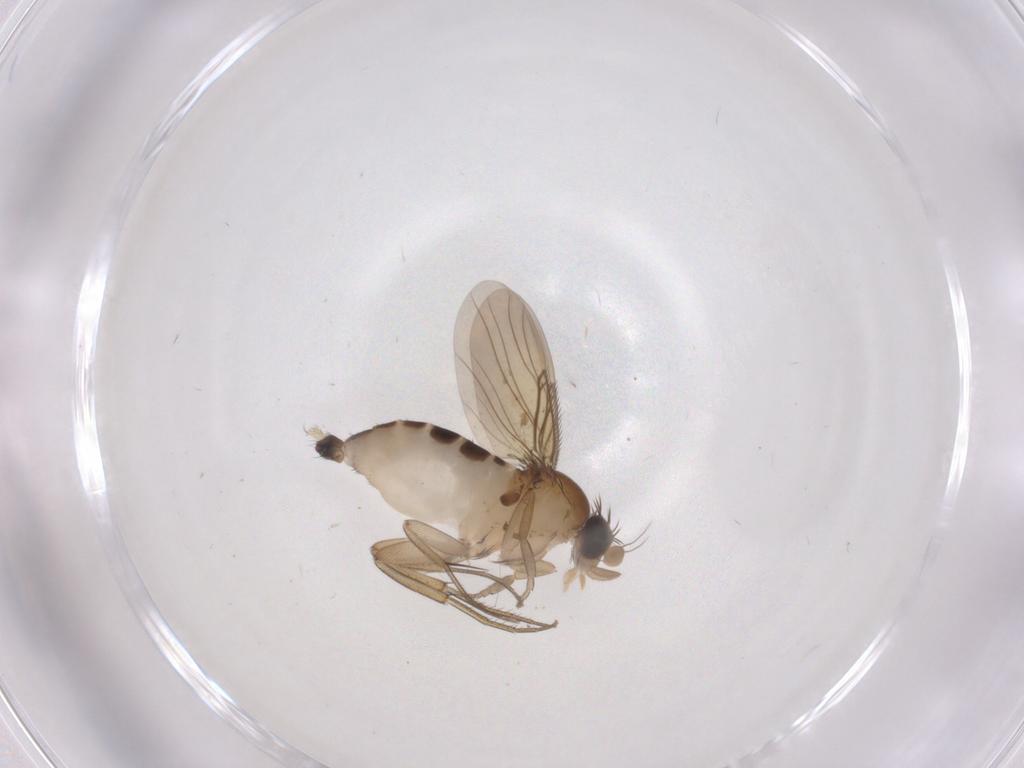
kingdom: Animalia
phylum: Arthropoda
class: Insecta
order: Diptera
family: Phoridae
